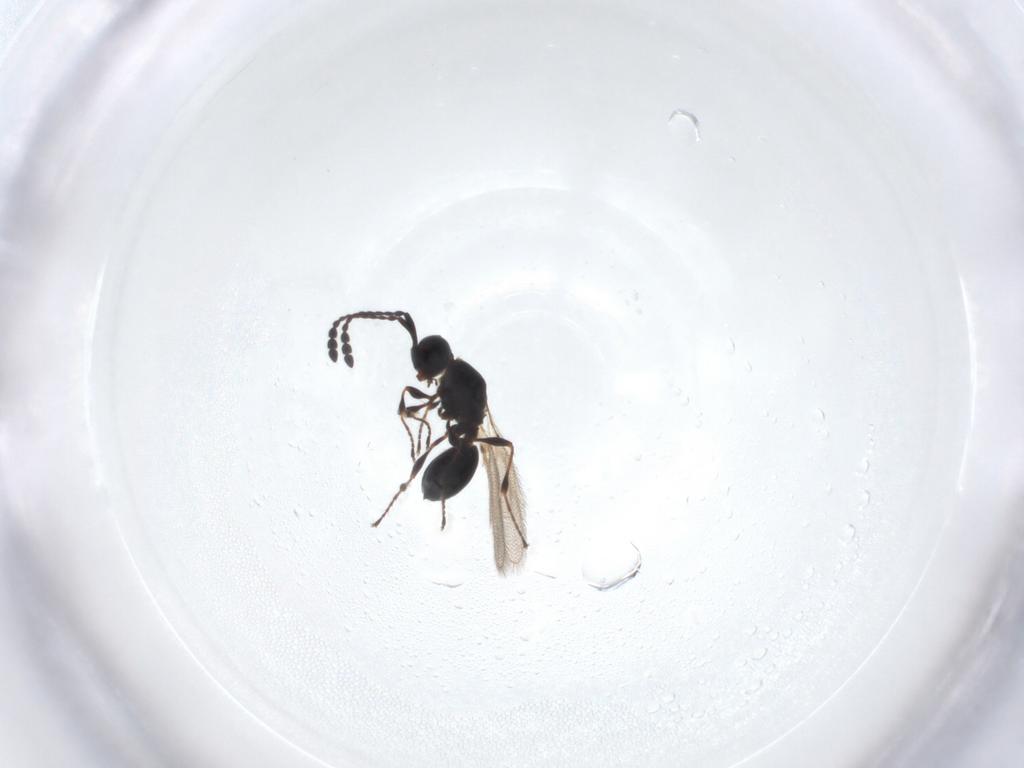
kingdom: Animalia
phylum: Arthropoda
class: Insecta
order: Hymenoptera
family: Diapriidae
